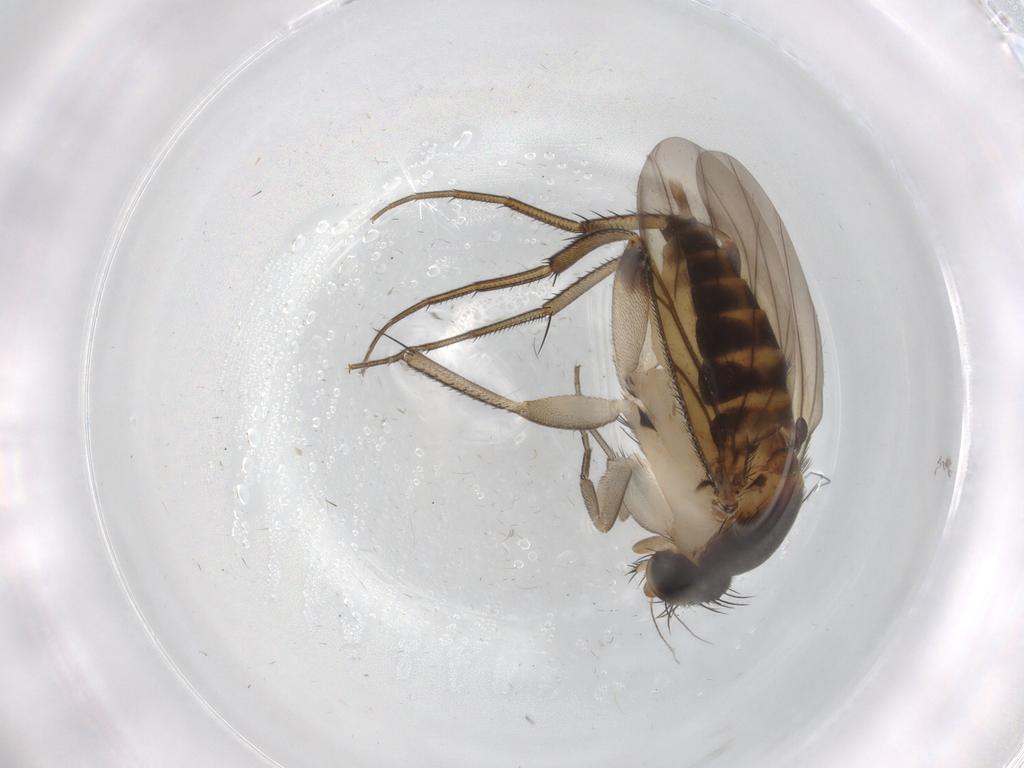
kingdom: Animalia
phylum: Arthropoda
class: Insecta
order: Diptera
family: Phoridae
